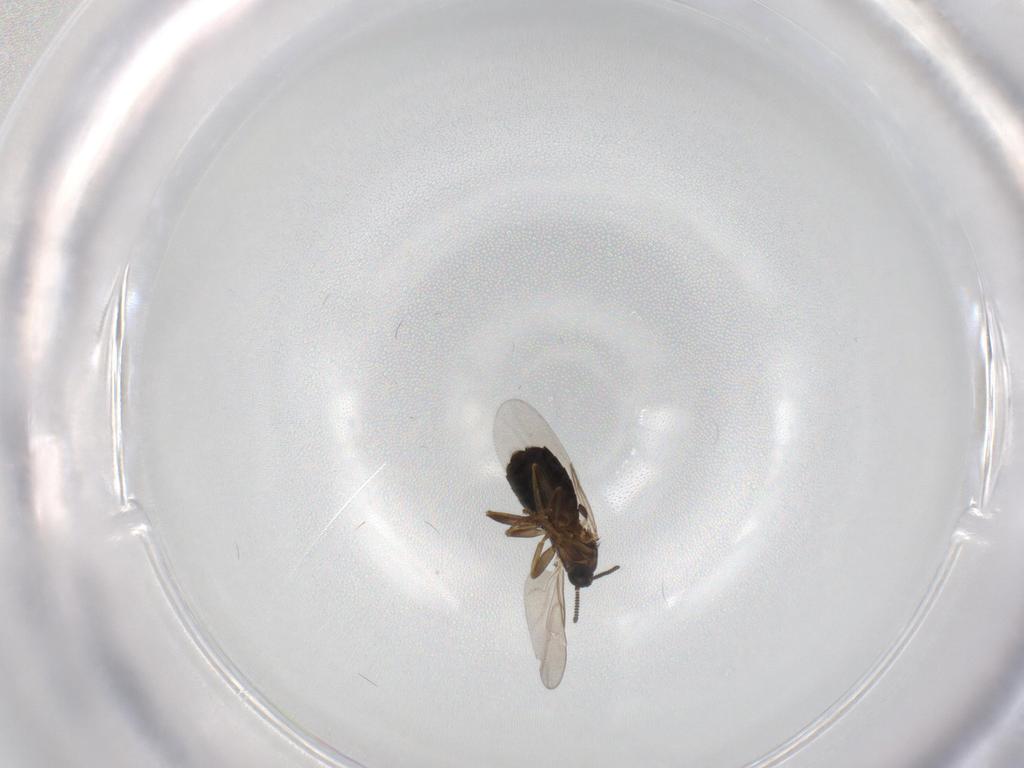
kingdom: Animalia
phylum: Arthropoda
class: Insecta
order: Diptera
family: Scatopsidae
